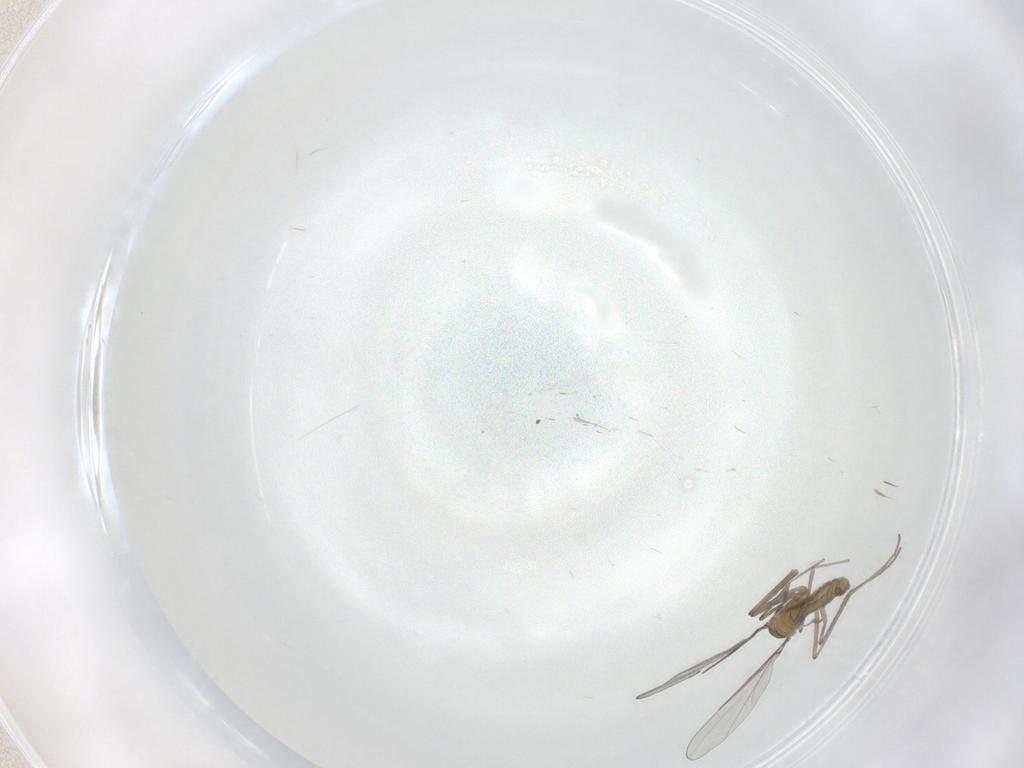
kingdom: Animalia
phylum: Arthropoda
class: Insecta
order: Diptera
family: Cecidomyiidae
